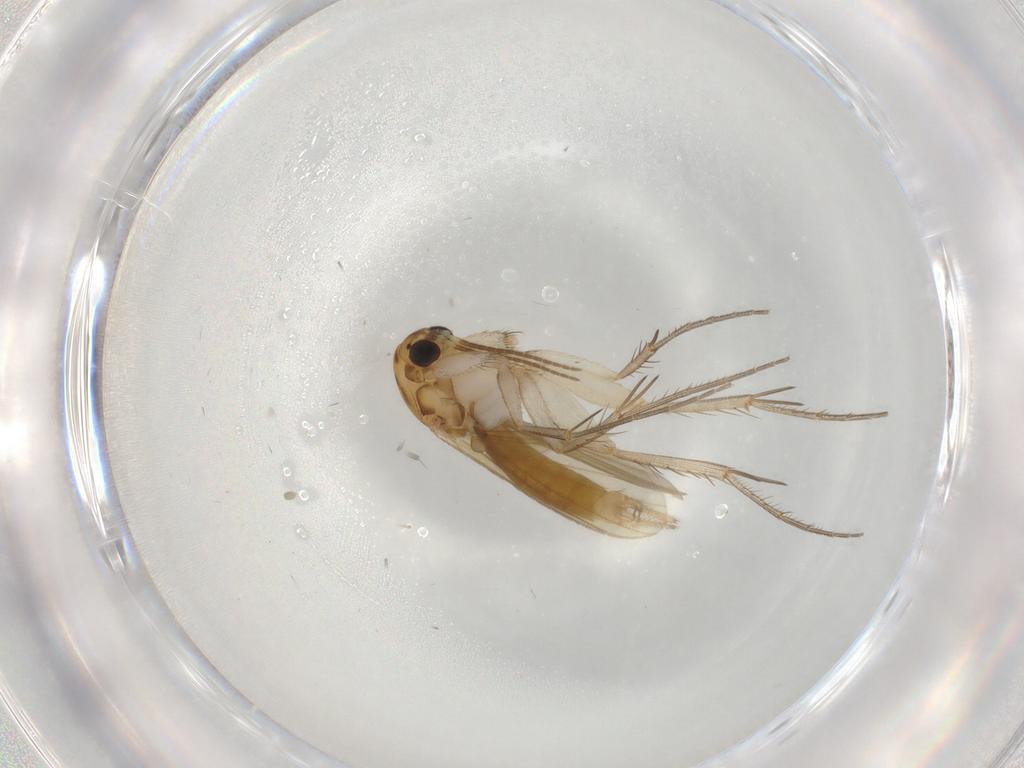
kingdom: Animalia
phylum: Arthropoda
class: Insecta
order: Diptera
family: Mycetophilidae
